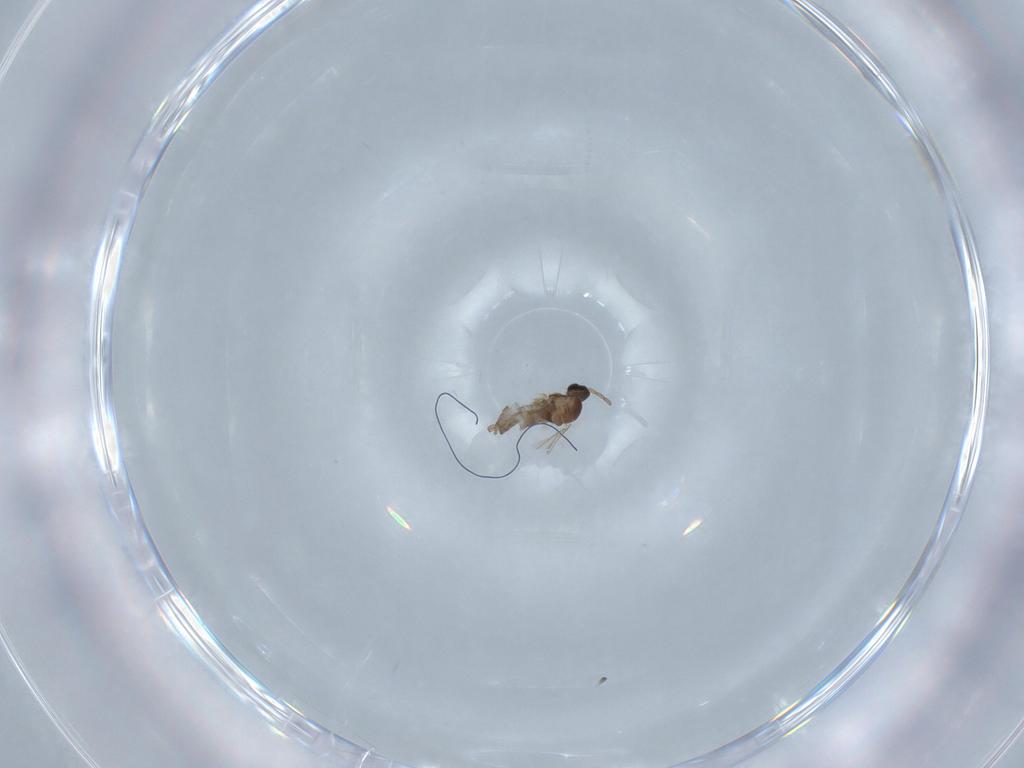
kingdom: Animalia
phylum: Arthropoda
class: Insecta
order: Diptera
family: Cecidomyiidae
